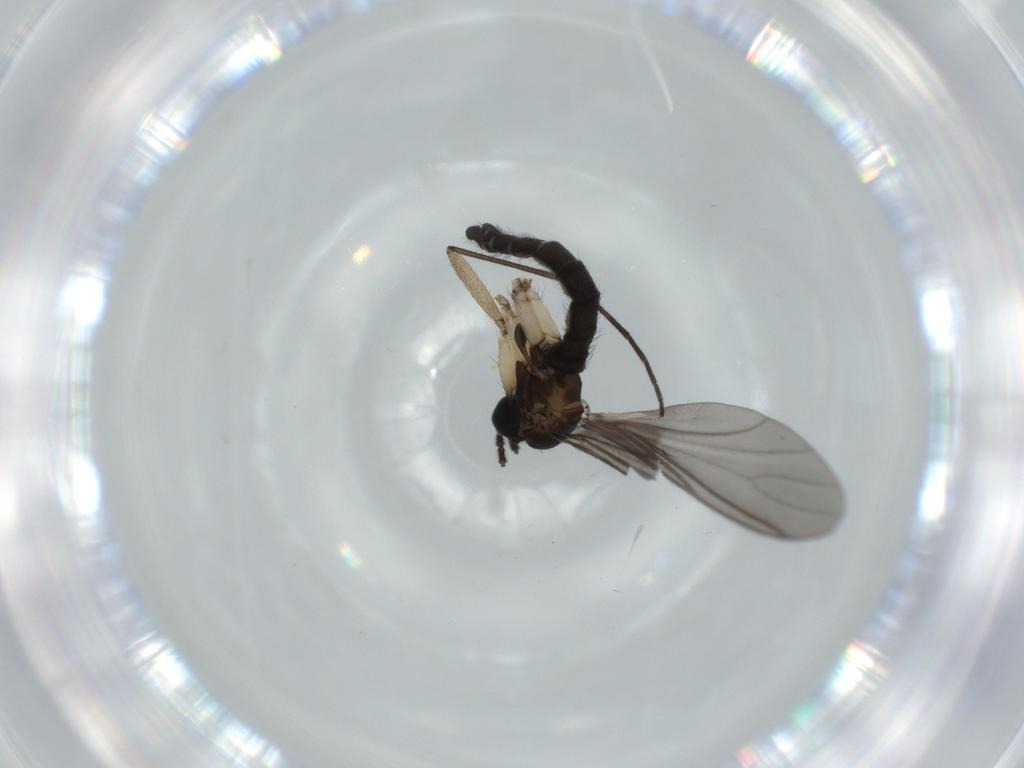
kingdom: Animalia
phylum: Arthropoda
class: Insecta
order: Diptera
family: Sciaridae
